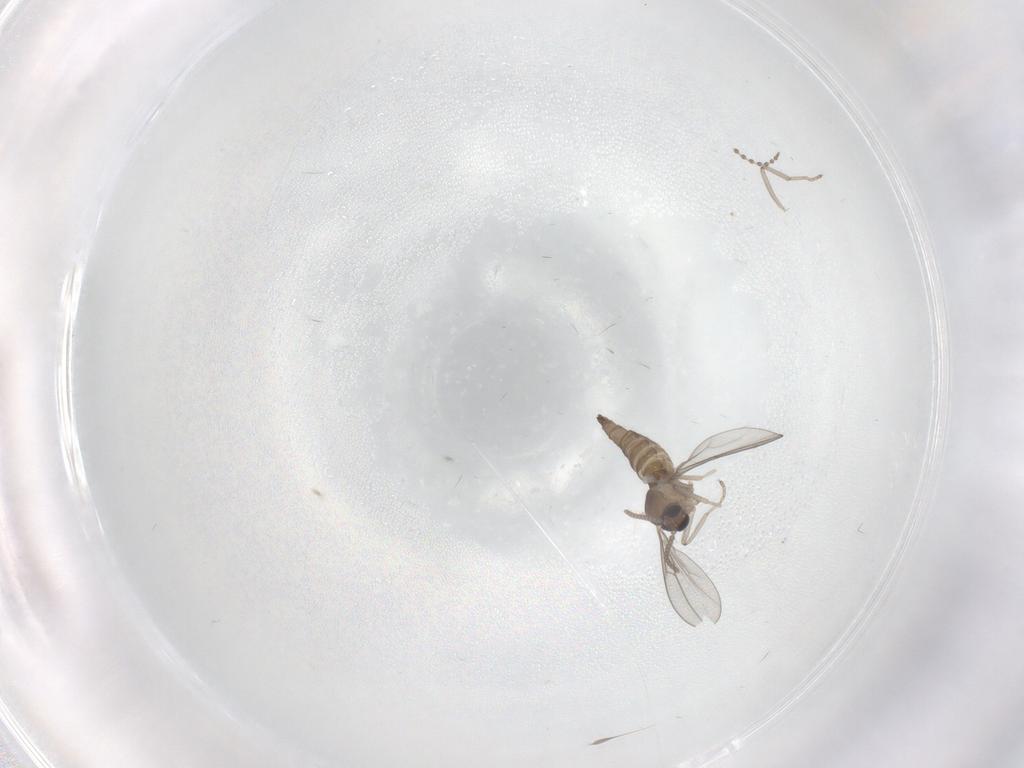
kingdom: Animalia
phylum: Arthropoda
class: Insecta
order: Diptera
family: Cecidomyiidae
